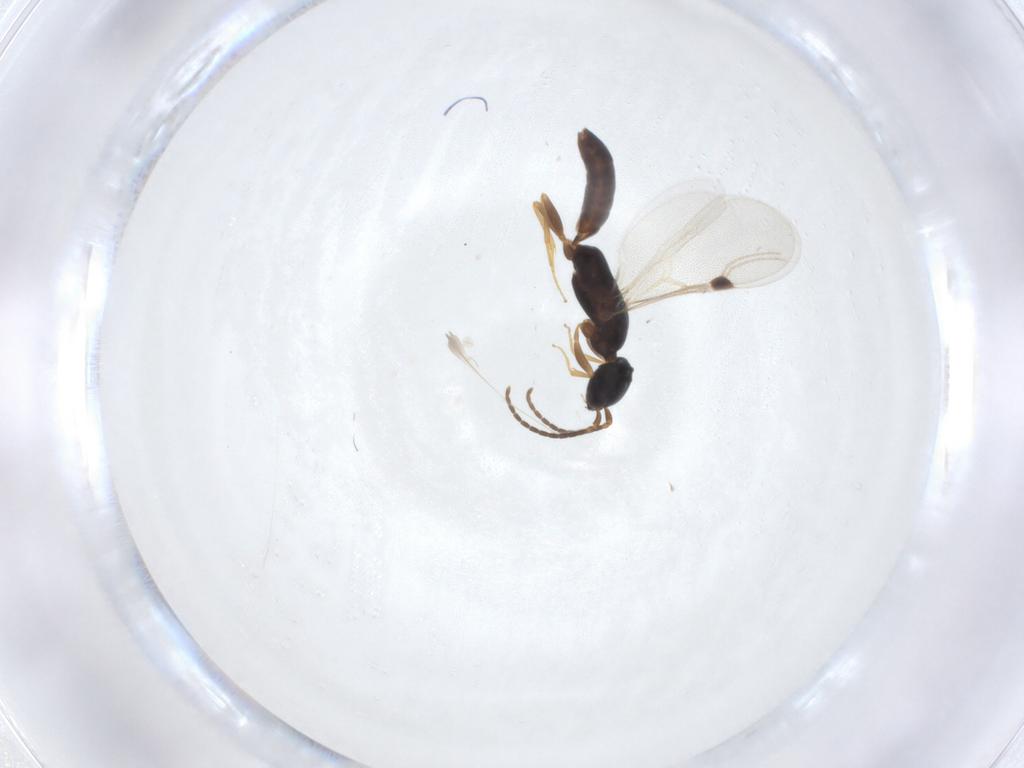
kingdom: Animalia
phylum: Arthropoda
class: Insecta
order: Hymenoptera
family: Bethylidae
